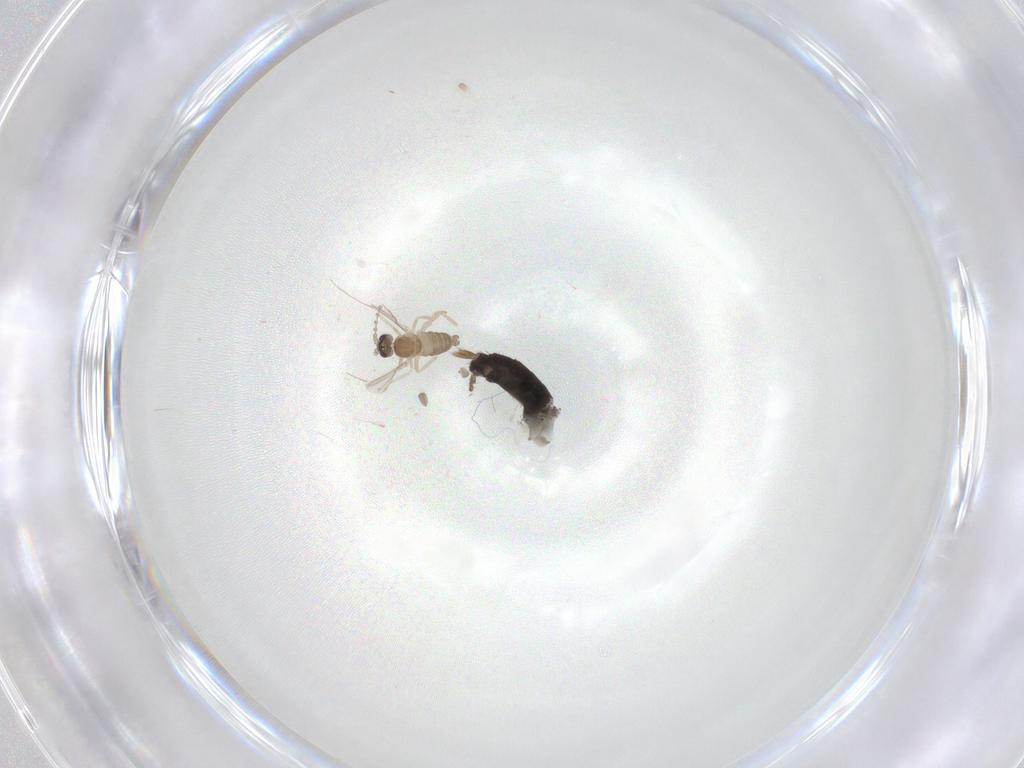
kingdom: Animalia
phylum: Arthropoda
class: Insecta
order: Diptera
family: Cecidomyiidae
